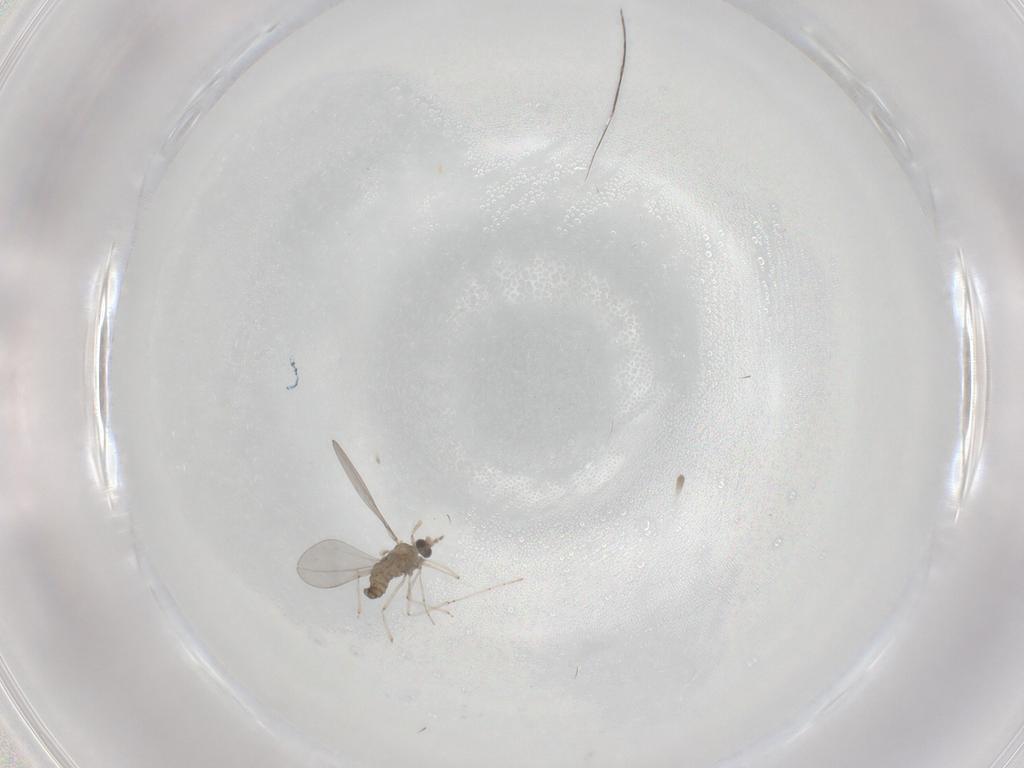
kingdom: Animalia
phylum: Arthropoda
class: Insecta
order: Diptera
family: Cecidomyiidae
